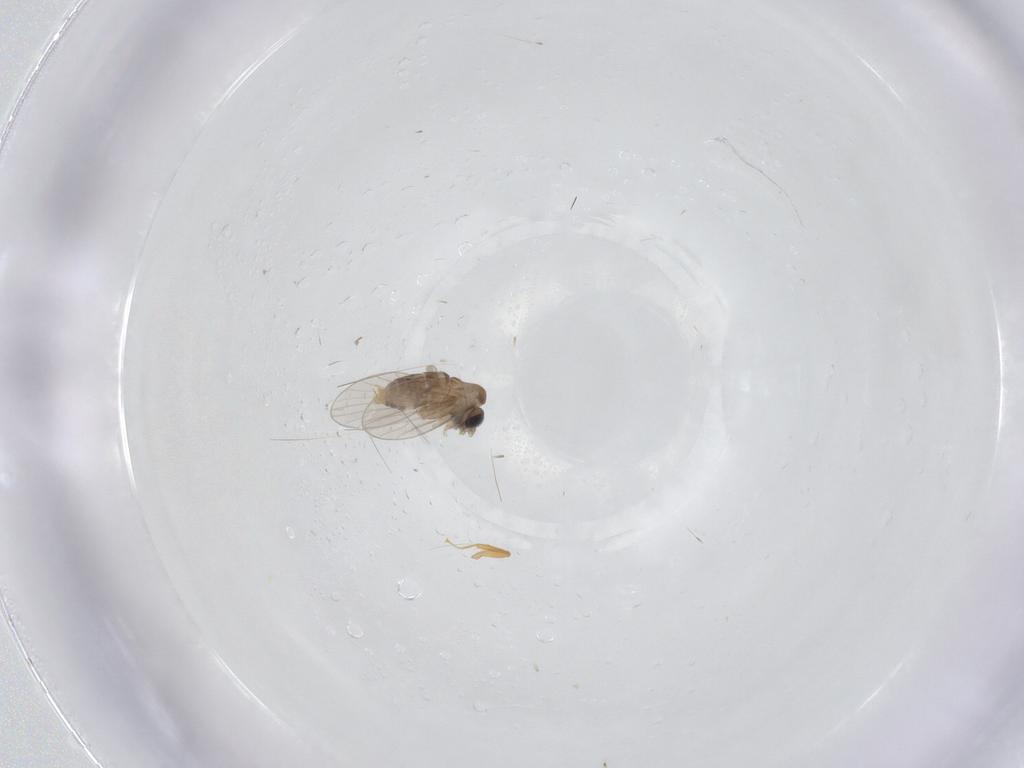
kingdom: Animalia
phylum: Arthropoda
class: Insecta
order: Diptera
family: Psychodidae
